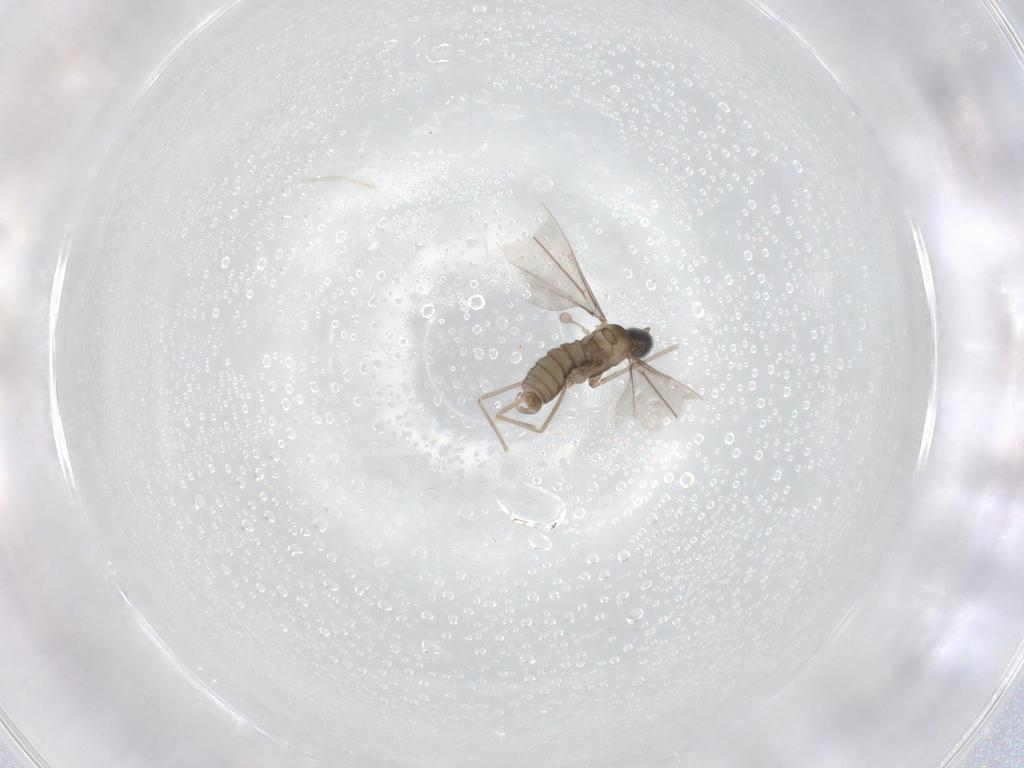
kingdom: Animalia
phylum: Arthropoda
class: Insecta
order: Diptera
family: Cecidomyiidae
